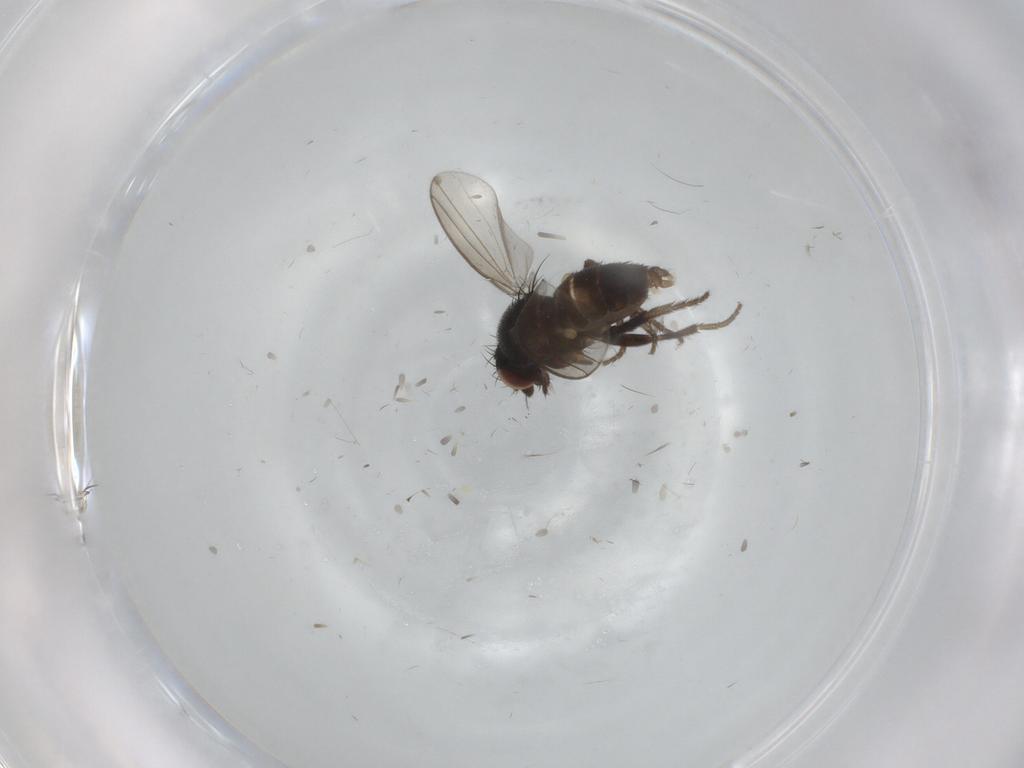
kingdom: Animalia
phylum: Arthropoda
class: Insecta
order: Diptera
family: Milichiidae
